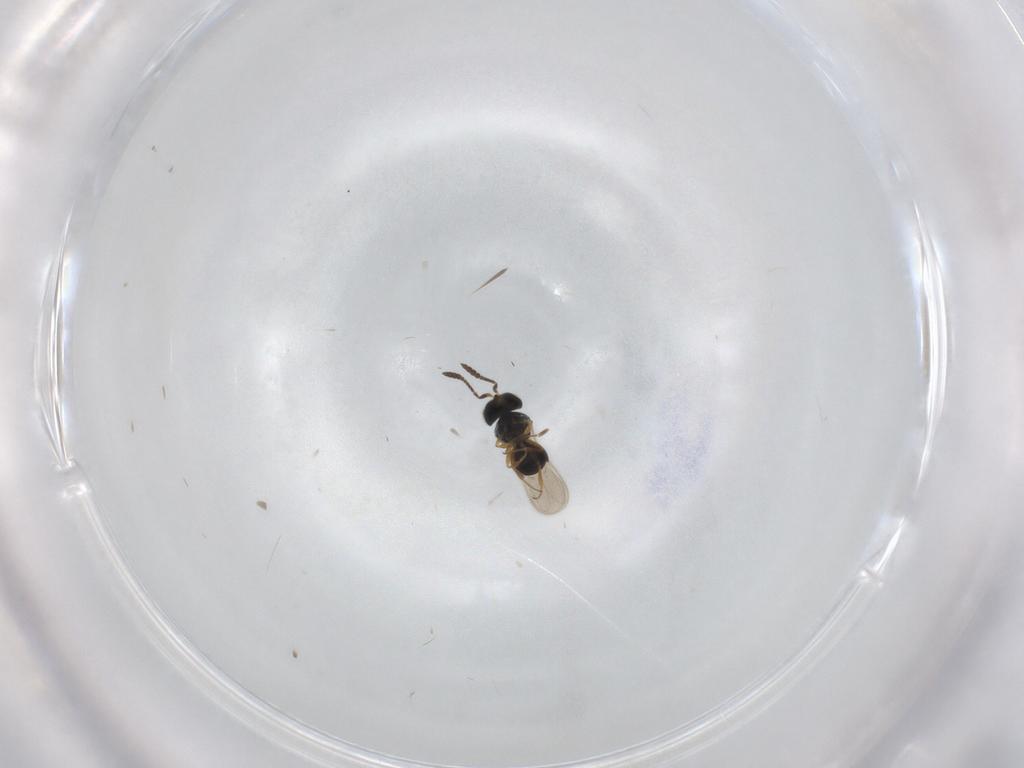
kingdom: Animalia
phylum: Arthropoda
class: Insecta
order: Hymenoptera
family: Scelionidae
